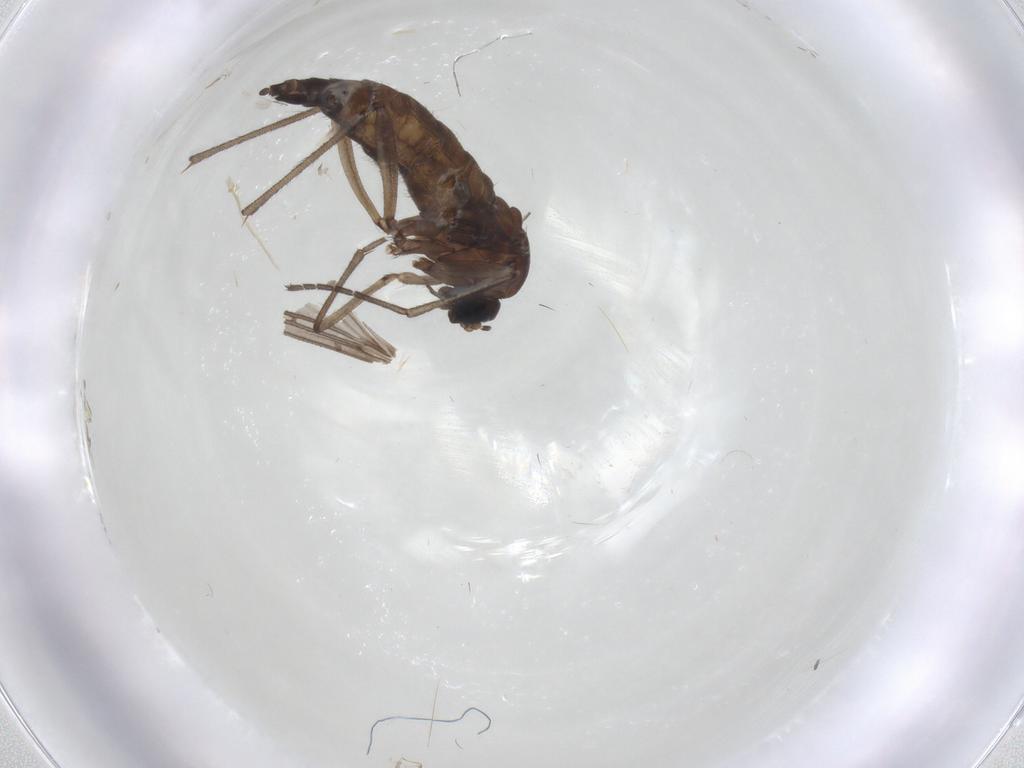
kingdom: Animalia
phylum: Arthropoda
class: Insecta
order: Diptera
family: Sciaridae
